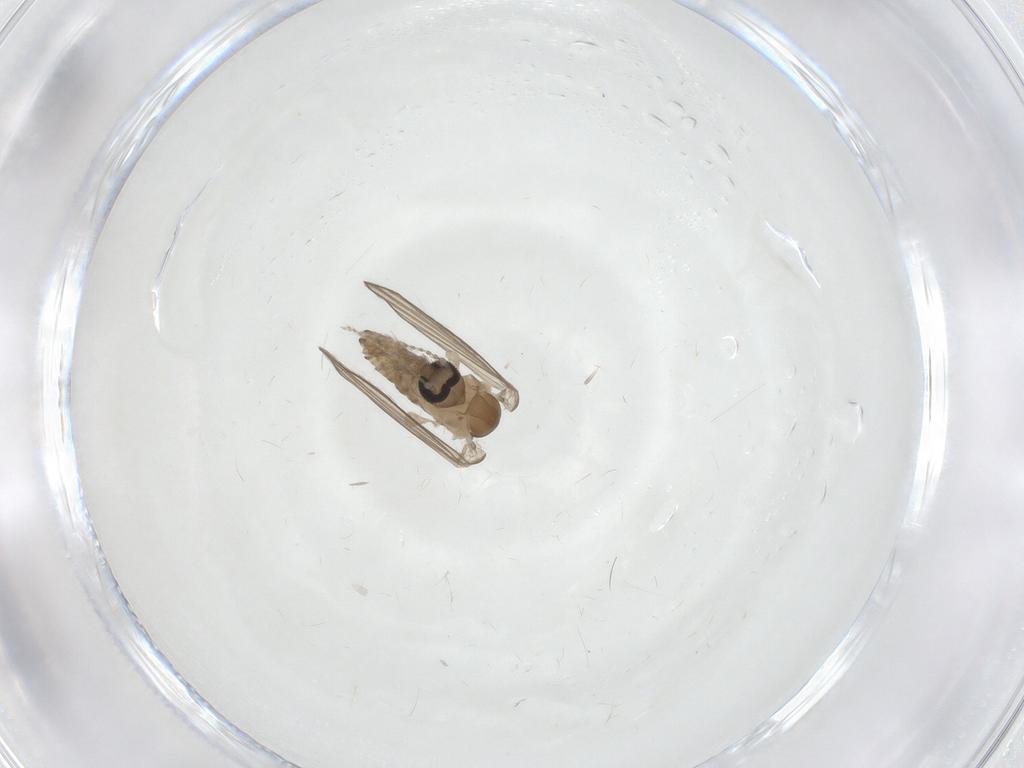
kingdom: Animalia
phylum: Arthropoda
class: Insecta
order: Diptera
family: Psychodidae
